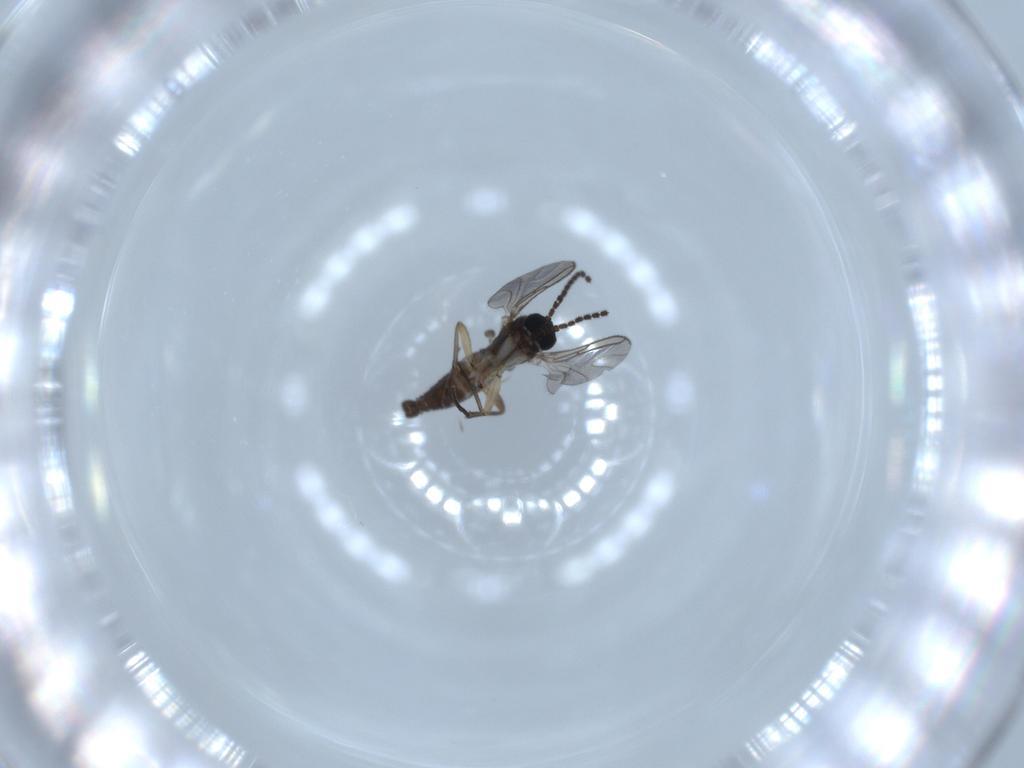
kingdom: Animalia
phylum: Arthropoda
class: Insecta
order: Diptera
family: Sciaridae
